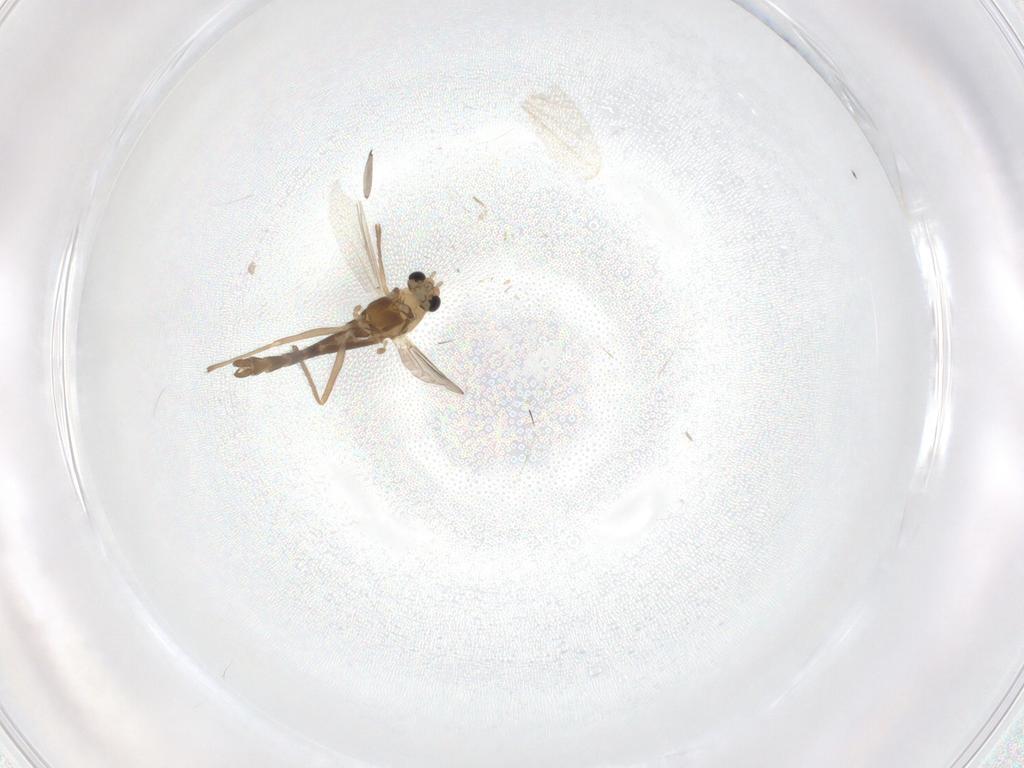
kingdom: Animalia
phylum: Arthropoda
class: Insecta
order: Diptera
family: Chironomidae
